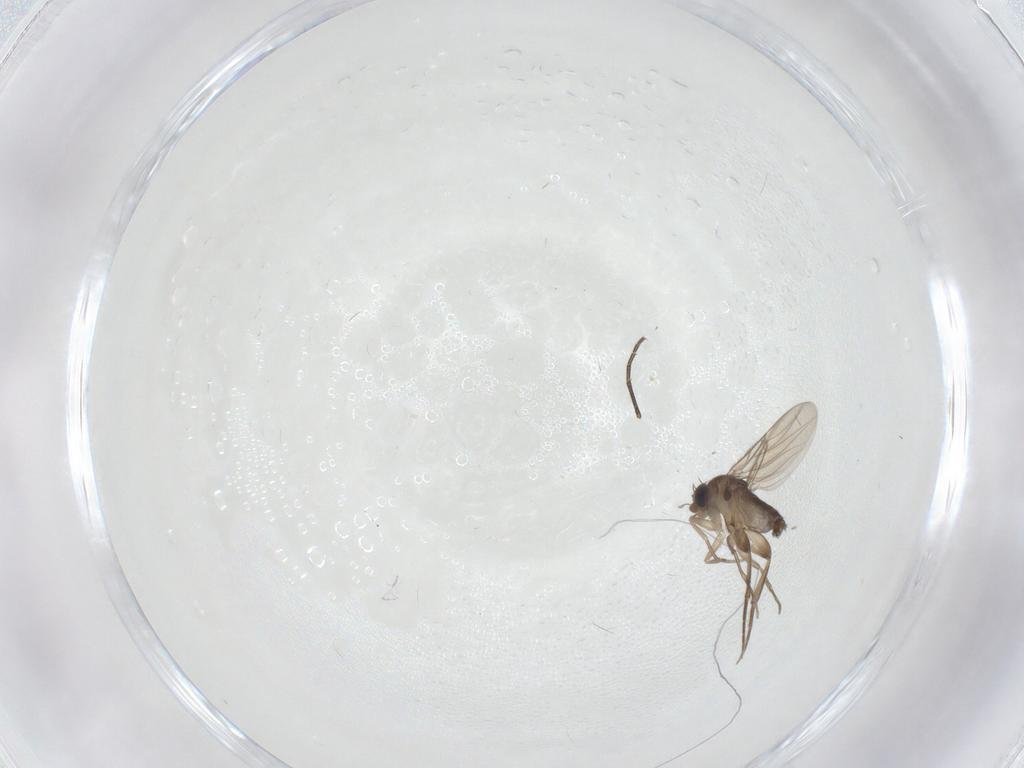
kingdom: Animalia
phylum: Arthropoda
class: Insecta
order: Diptera
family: Phoridae
